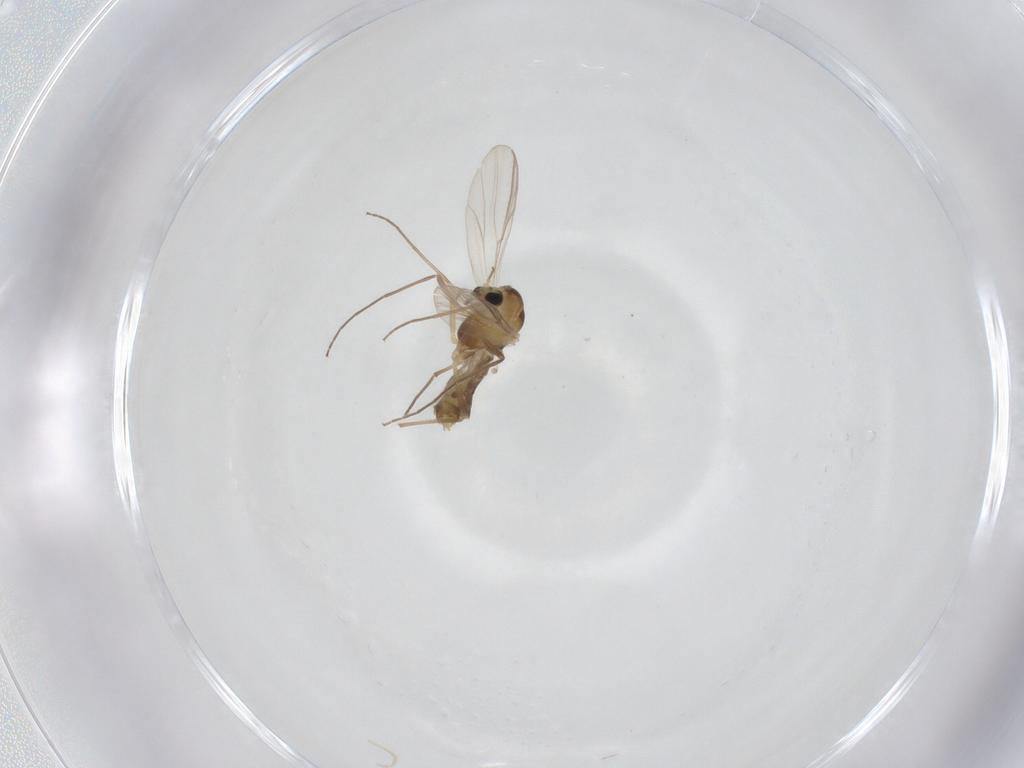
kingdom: Animalia
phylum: Arthropoda
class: Insecta
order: Diptera
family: Chironomidae
